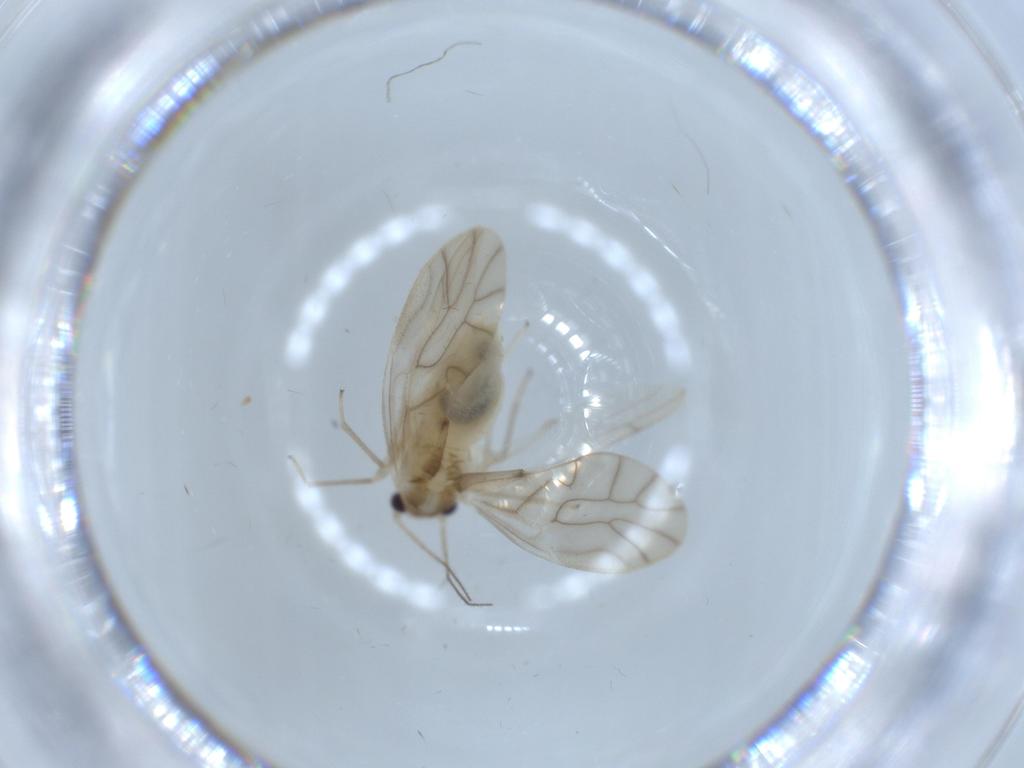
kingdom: Animalia
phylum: Arthropoda
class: Insecta
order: Psocodea
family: Caeciliusidae
